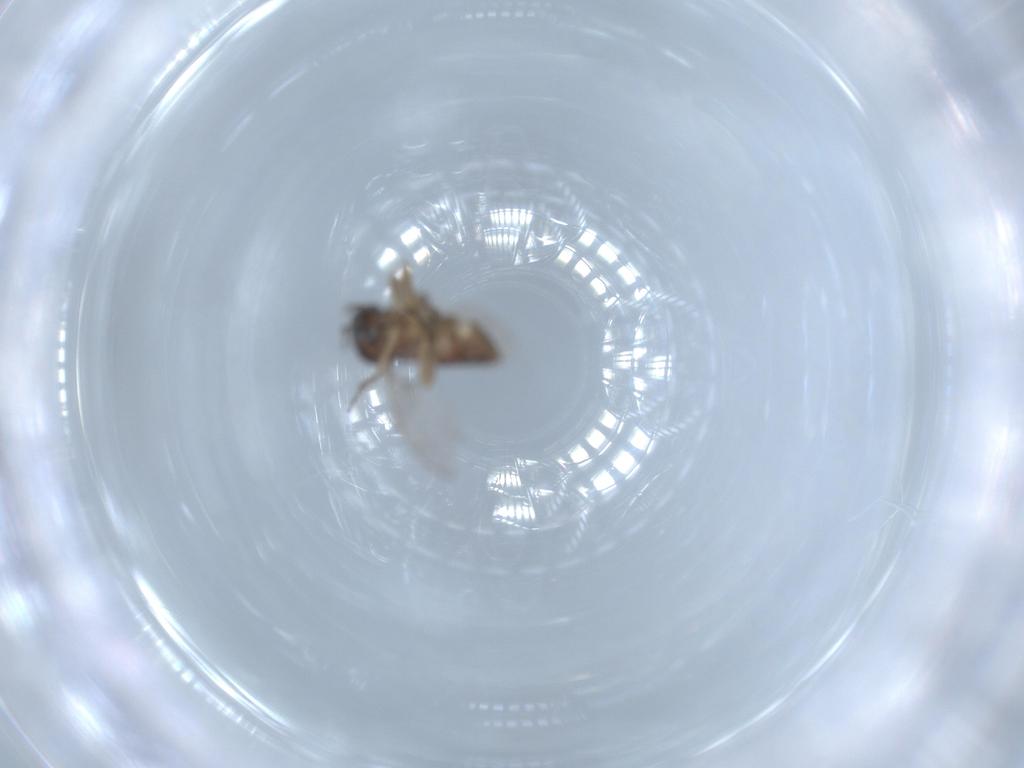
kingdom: Animalia
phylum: Arthropoda
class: Insecta
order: Diptera
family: Ceratopogonidae
